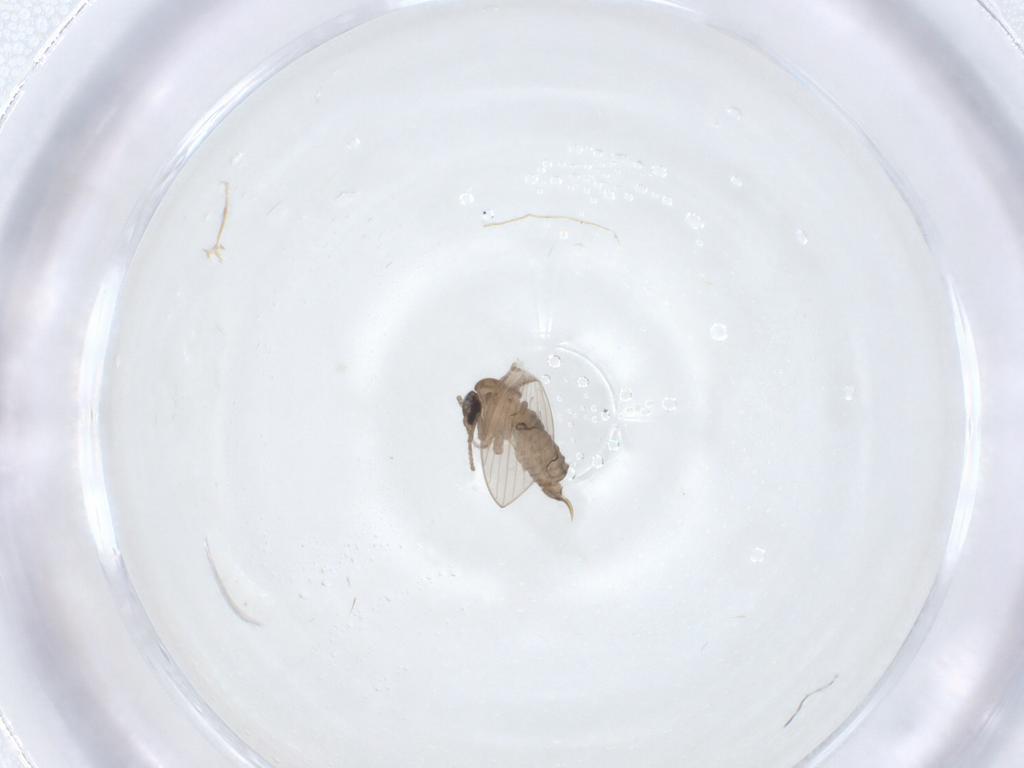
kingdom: Animalia
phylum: Arthropoda
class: Insecta
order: Diptera
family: Psychodidae
